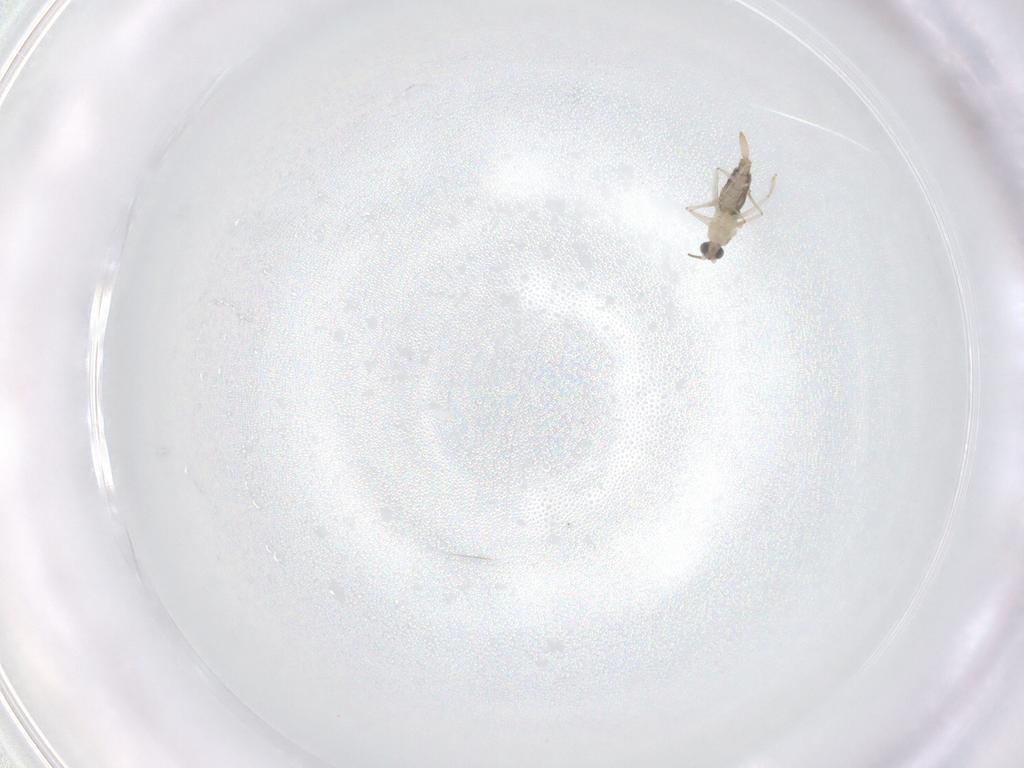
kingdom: Animalia
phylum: Arthropoda
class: Insecta
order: Diptera
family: Cecidomyiidae
